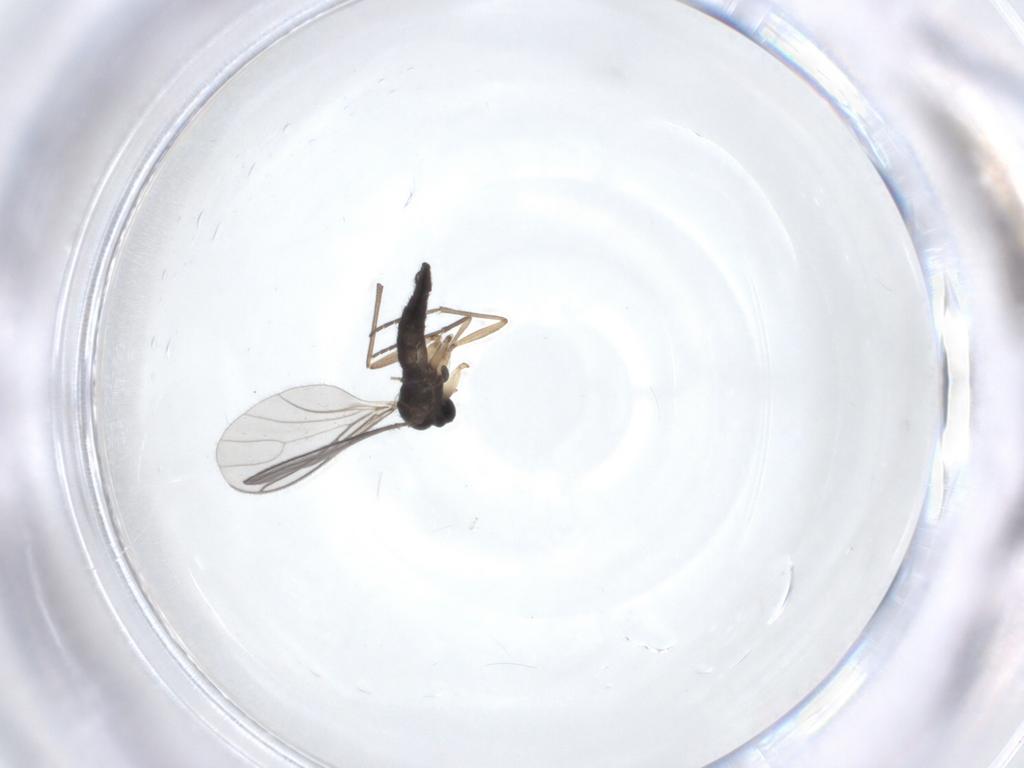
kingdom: Animalia
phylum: Arthropoda
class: Insecta
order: Diptera
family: Sciaridae
